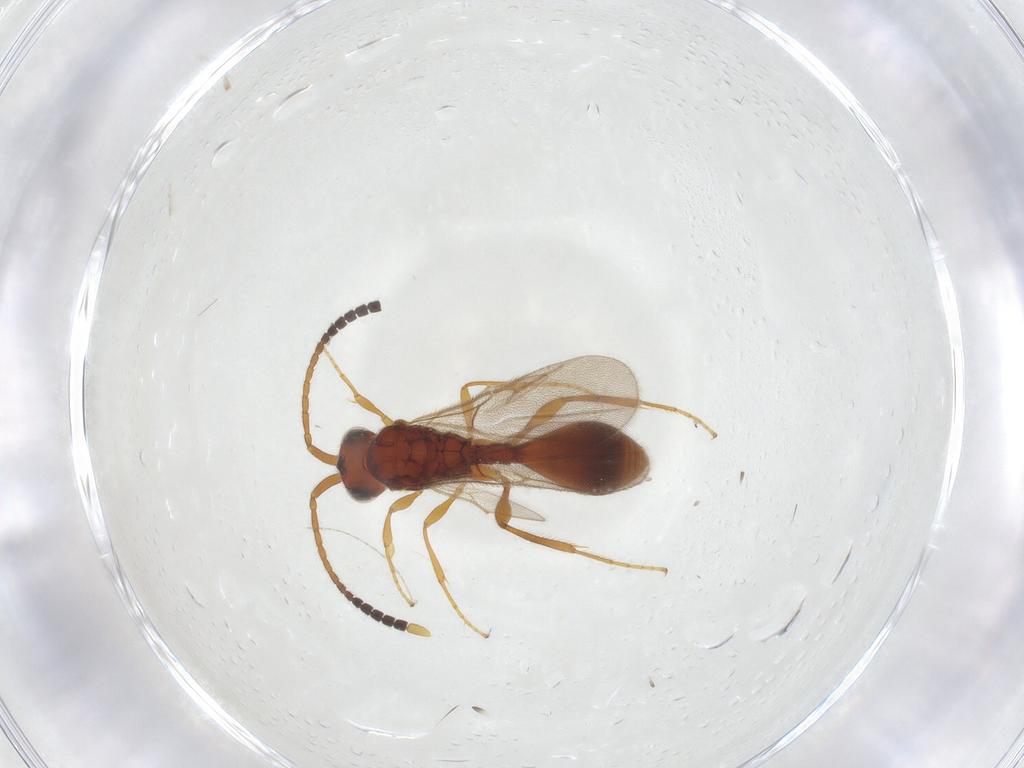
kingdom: Animalia
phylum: Arthropoda
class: Insecta
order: Hymenoptera
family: Diapriidae
